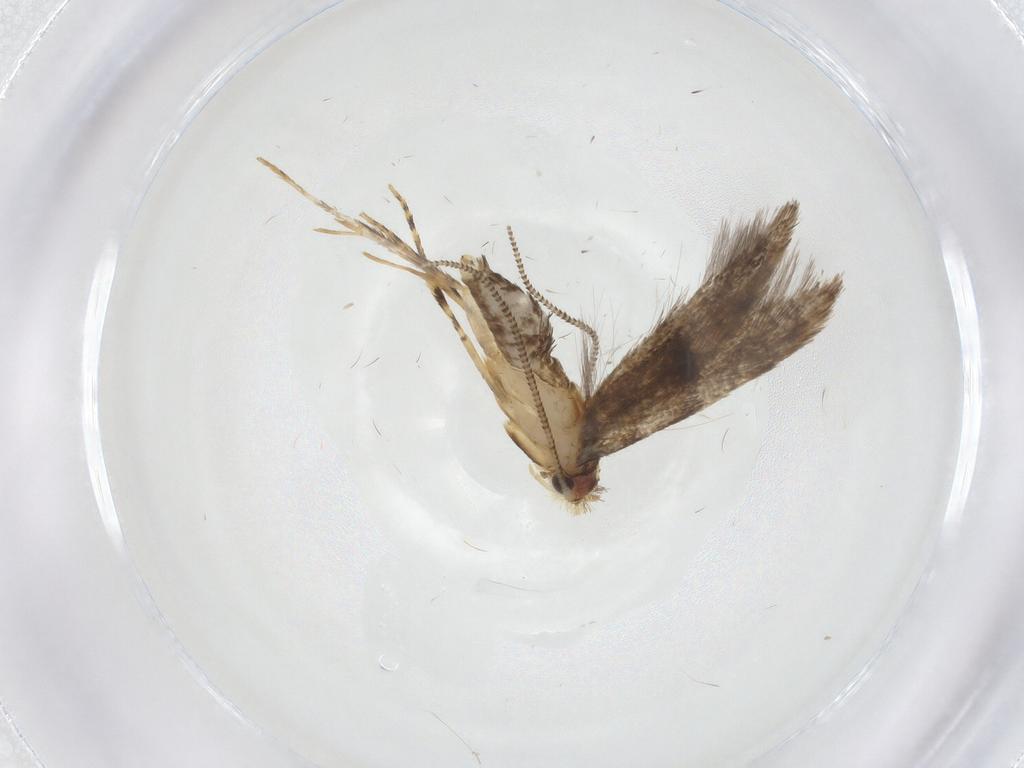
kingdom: Animalia
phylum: Arthropoda
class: Insecta
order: Lepidoptera
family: Tineidae
